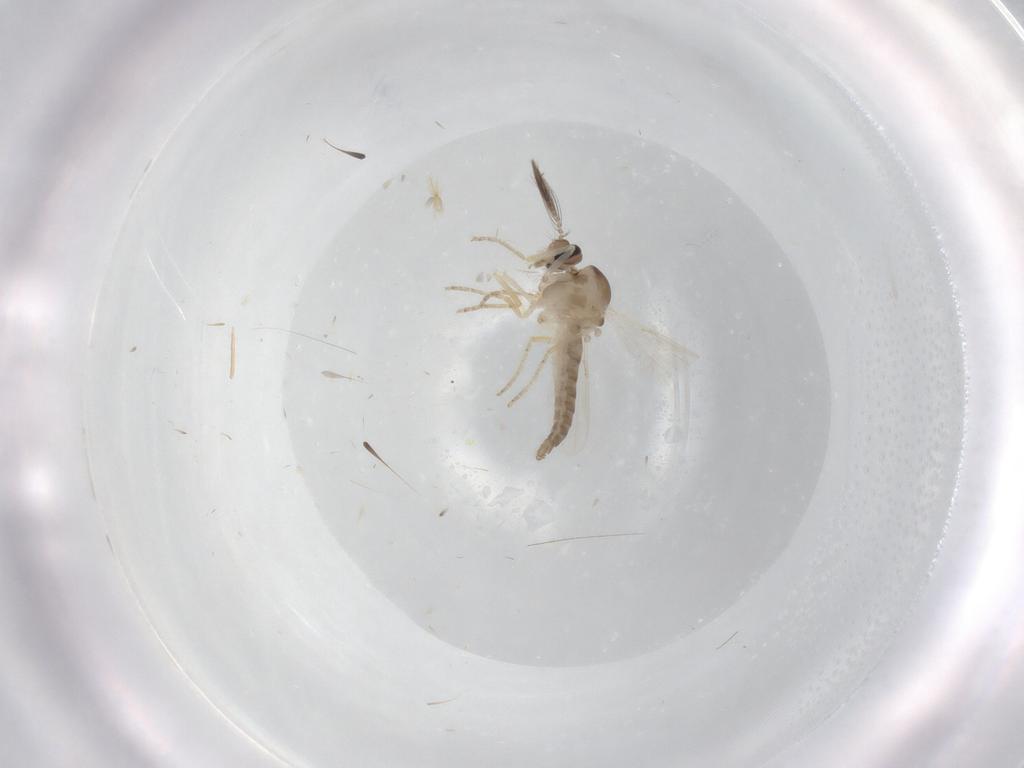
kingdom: Animalia
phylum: Arthropoda
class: Insecta
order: Diptera
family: Ceratopogonidae
